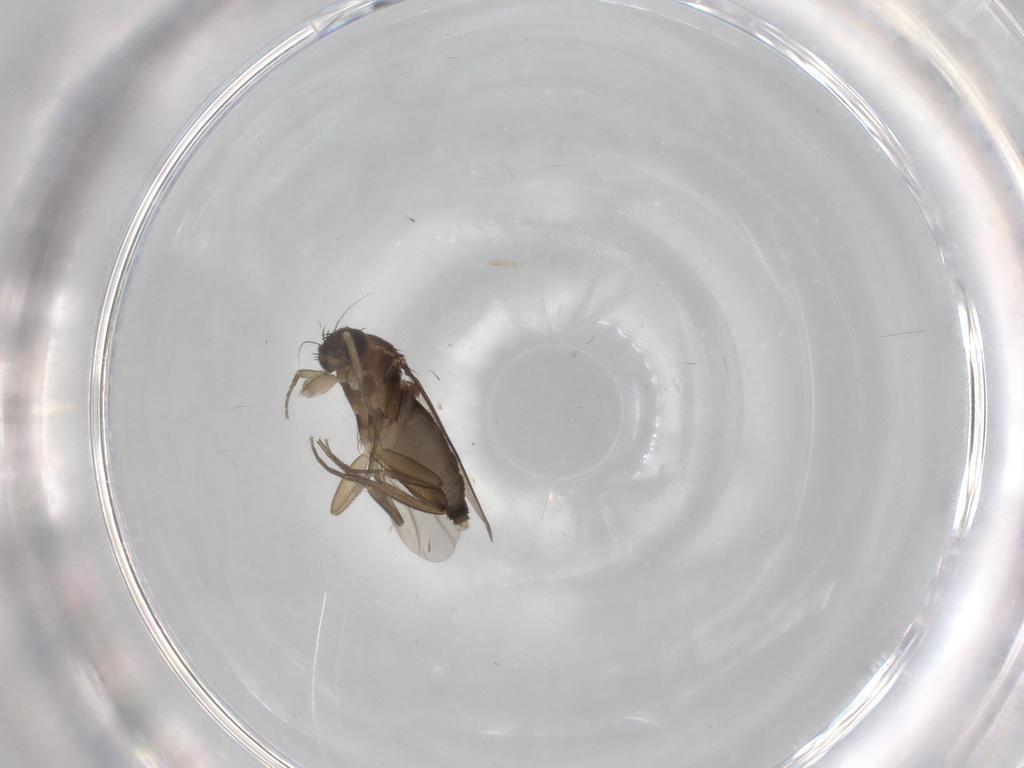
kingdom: Animalia
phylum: Arthropoda
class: Insecta
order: Diptera
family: Phoridae
